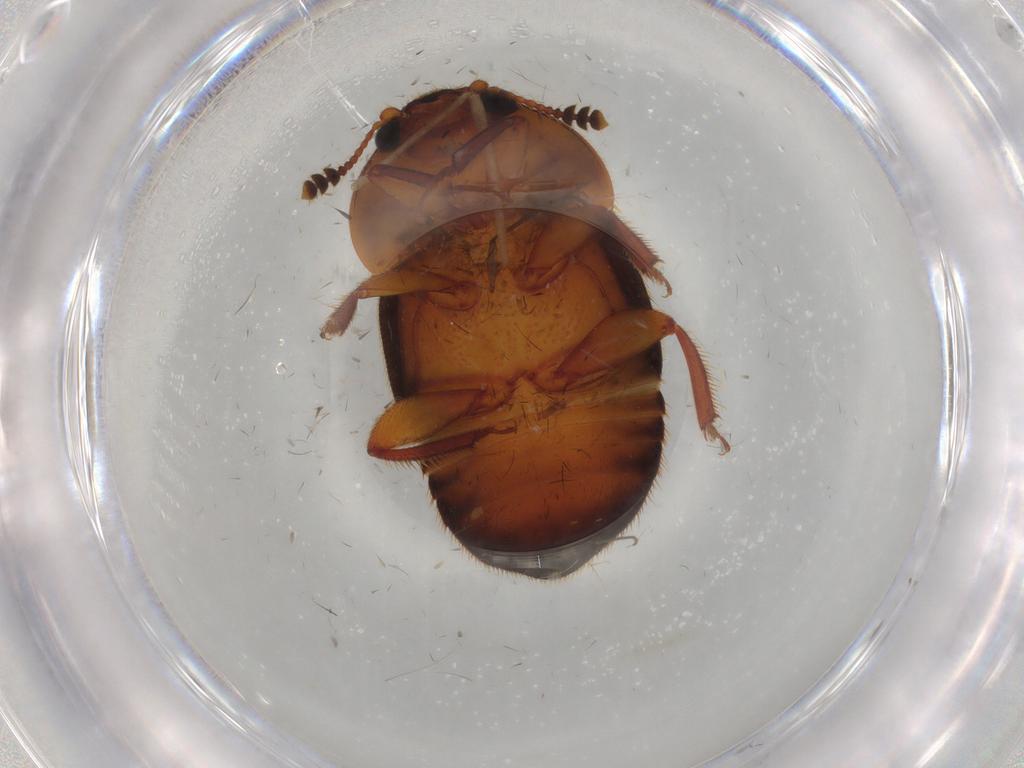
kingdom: Animalia
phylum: Arthropoda
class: Insecta
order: Coleoptera
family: Nitidulidae
